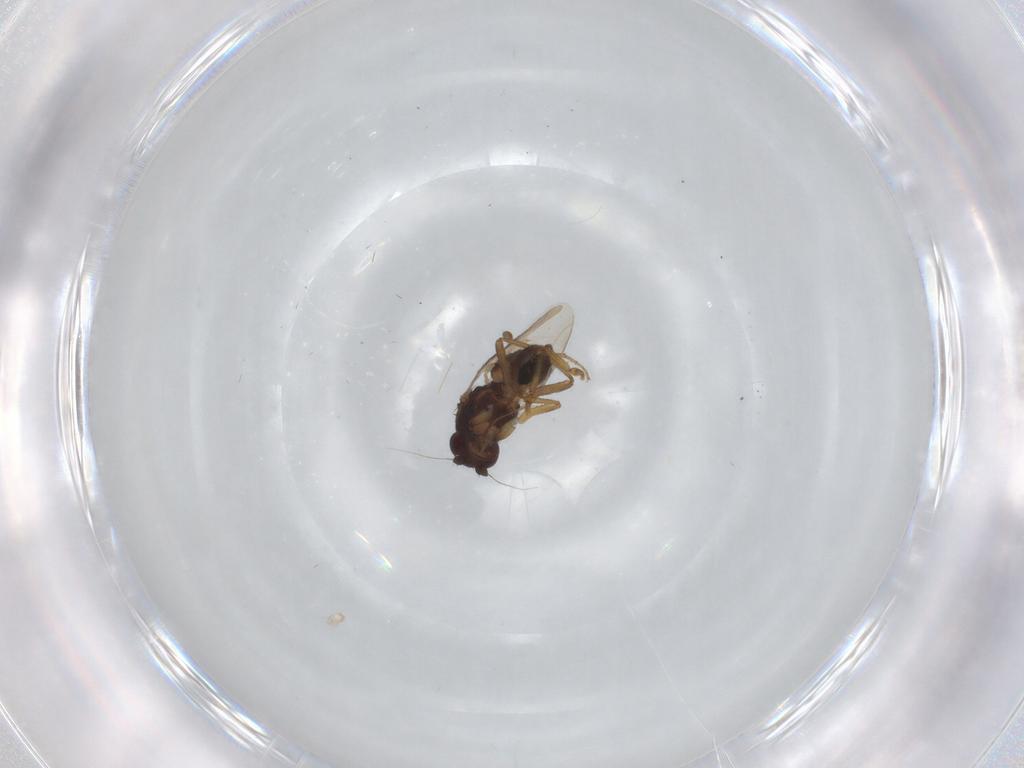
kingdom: Animalia
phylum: Arthropoda
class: Insecta
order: Diptera
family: Sphaeroceridae
